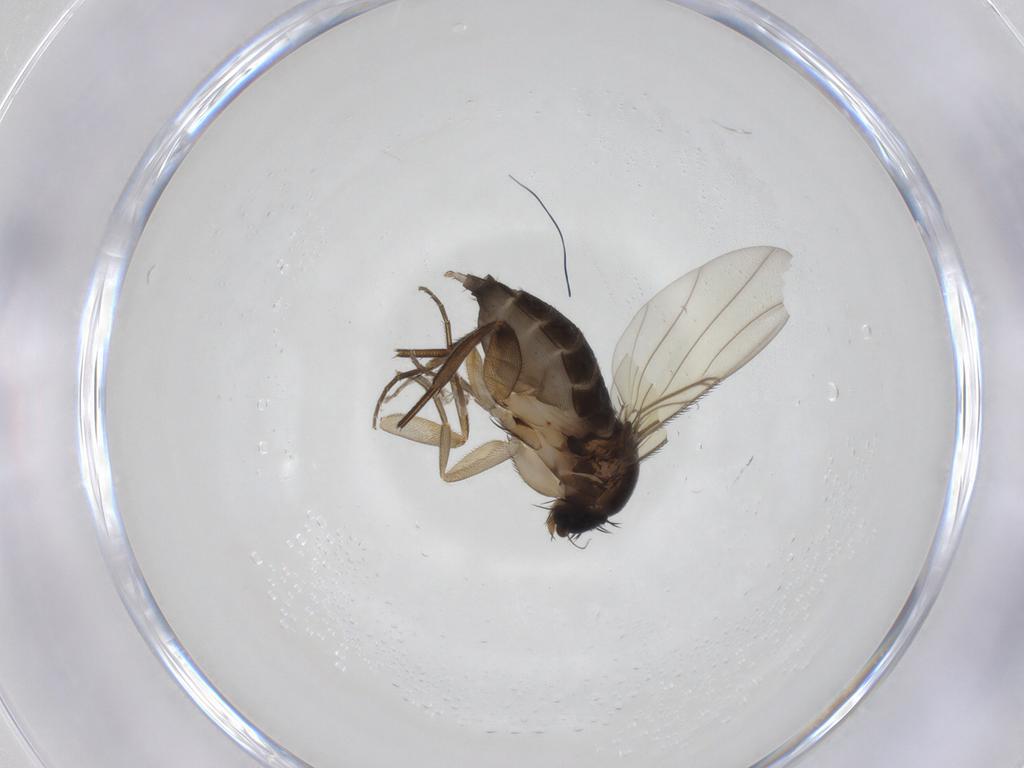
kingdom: Animalia
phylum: Arthropoda
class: Insecta
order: Diptera
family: Phoridae
